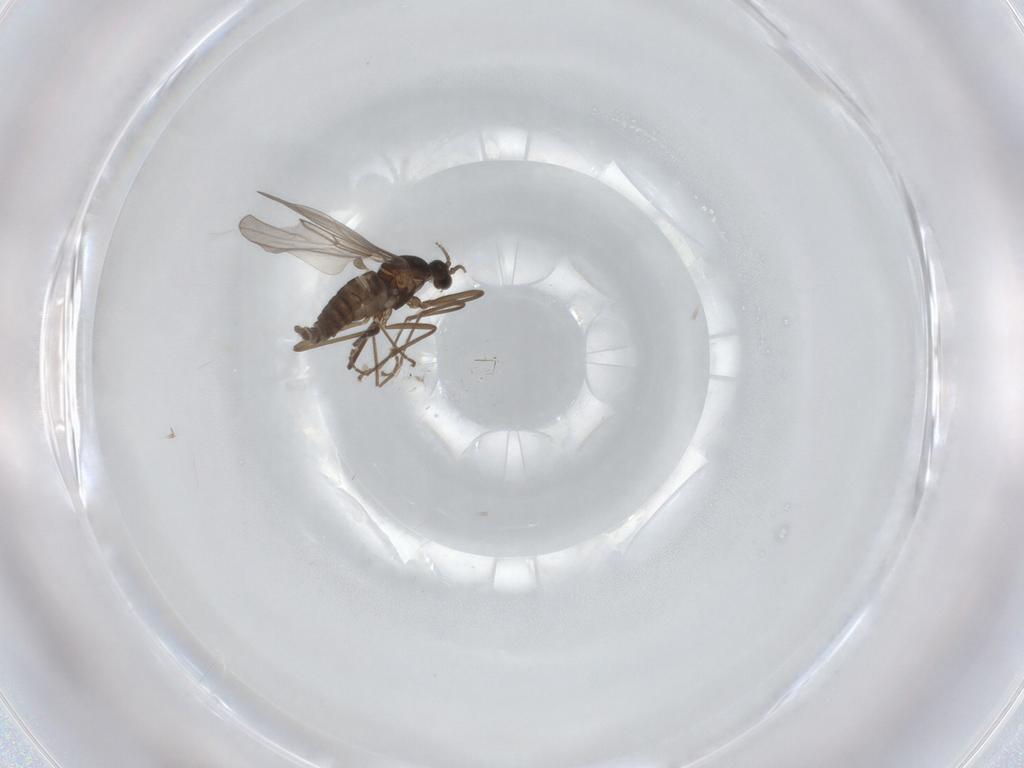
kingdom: Animalia
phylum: Arthropoda
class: Insecta
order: Diptera
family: Cecidomyiidae
